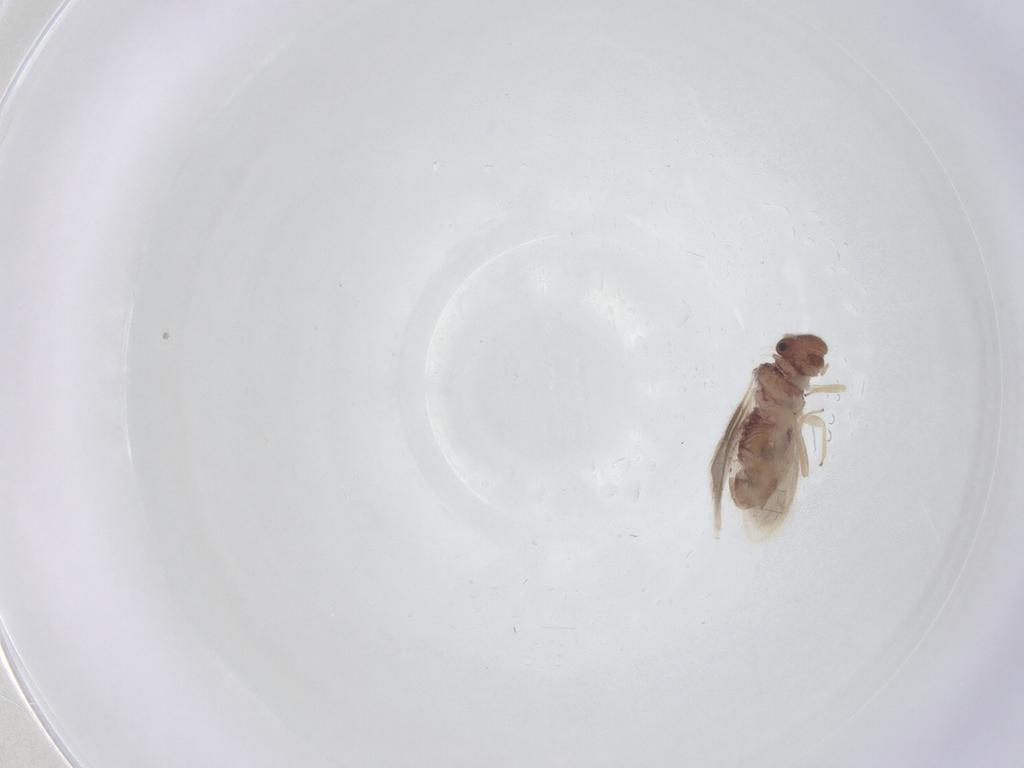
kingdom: Animalia
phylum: Arthropoda
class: Insecta
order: Psocodea
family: Archipsocidae
